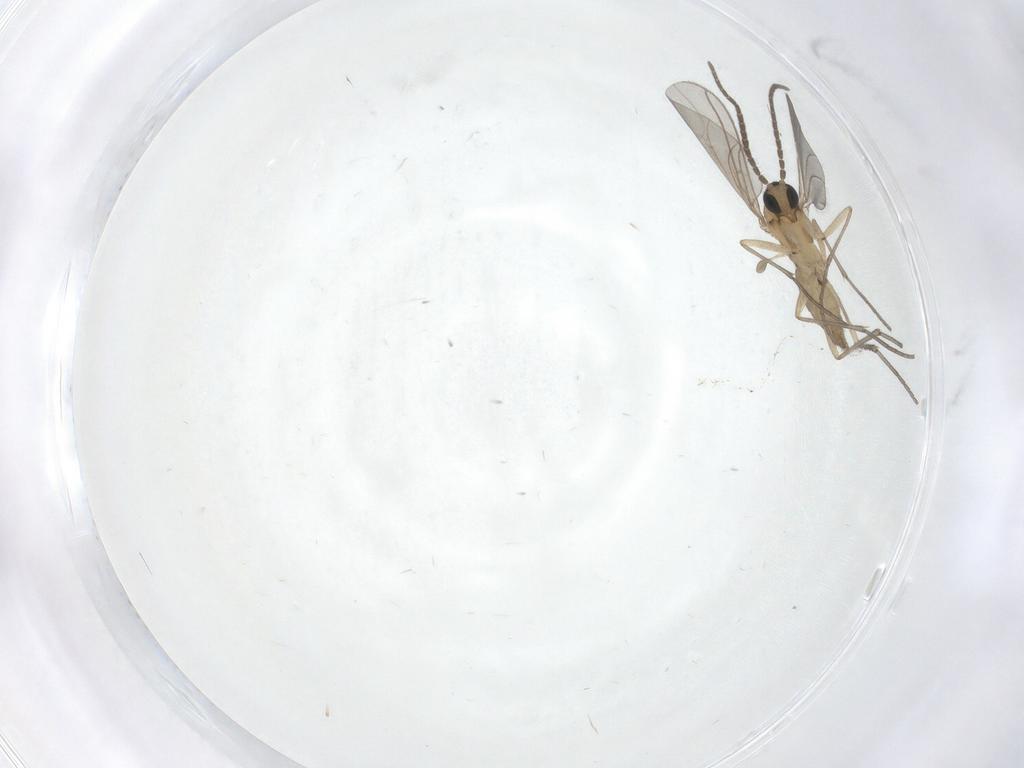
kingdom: Animalia
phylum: Arthropoda
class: Insecta
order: Diptera
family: Sciaridae
